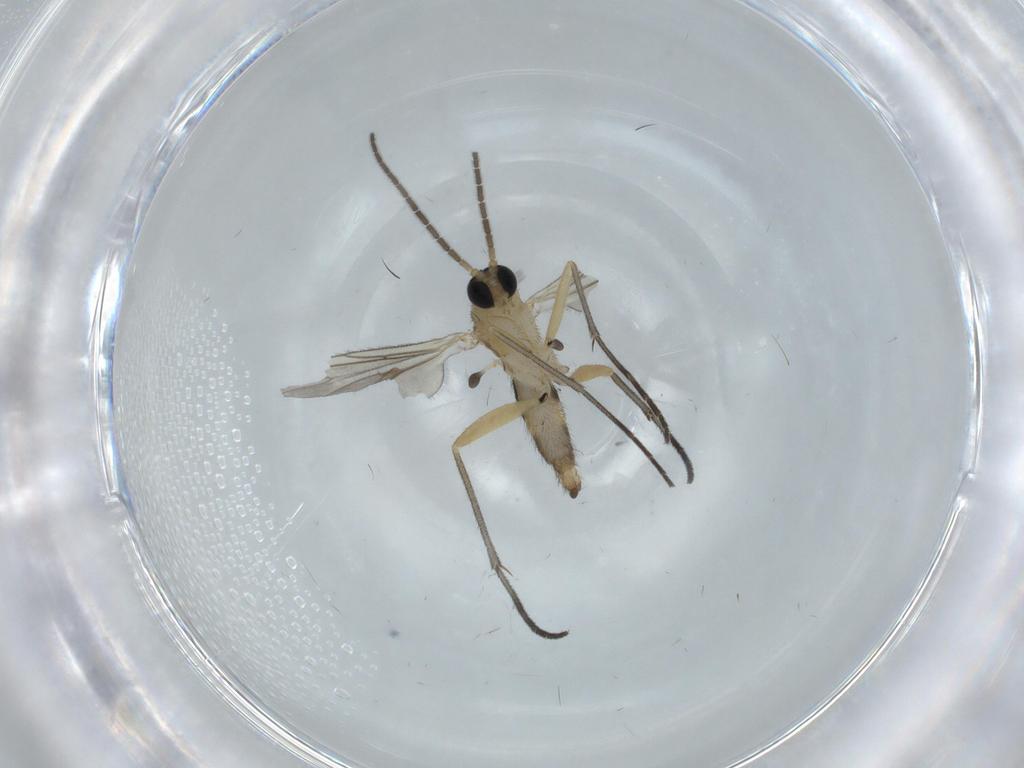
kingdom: Animalia
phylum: Arthropoda
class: Insecta
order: Diptera
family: Sciaridae
